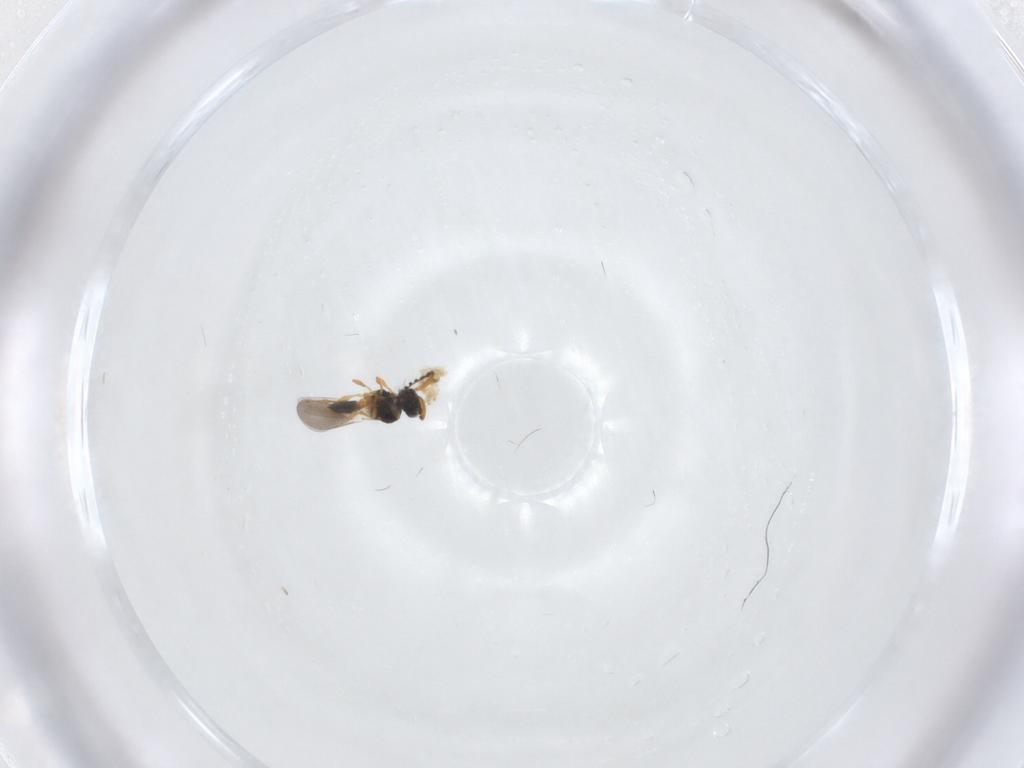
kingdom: Animalia
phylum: Arthropoda
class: Insecta
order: Hymenoptera
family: Platygastridae
